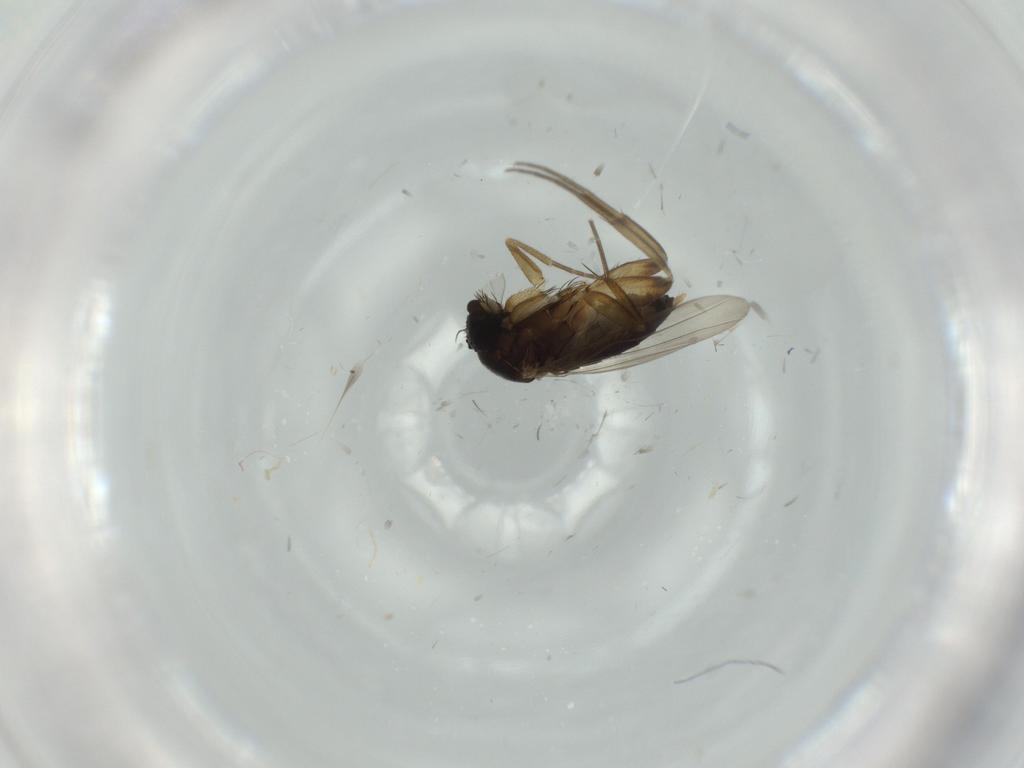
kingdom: Animalia
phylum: Arthropoda
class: Insecta
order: Diptera
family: Phoridae
